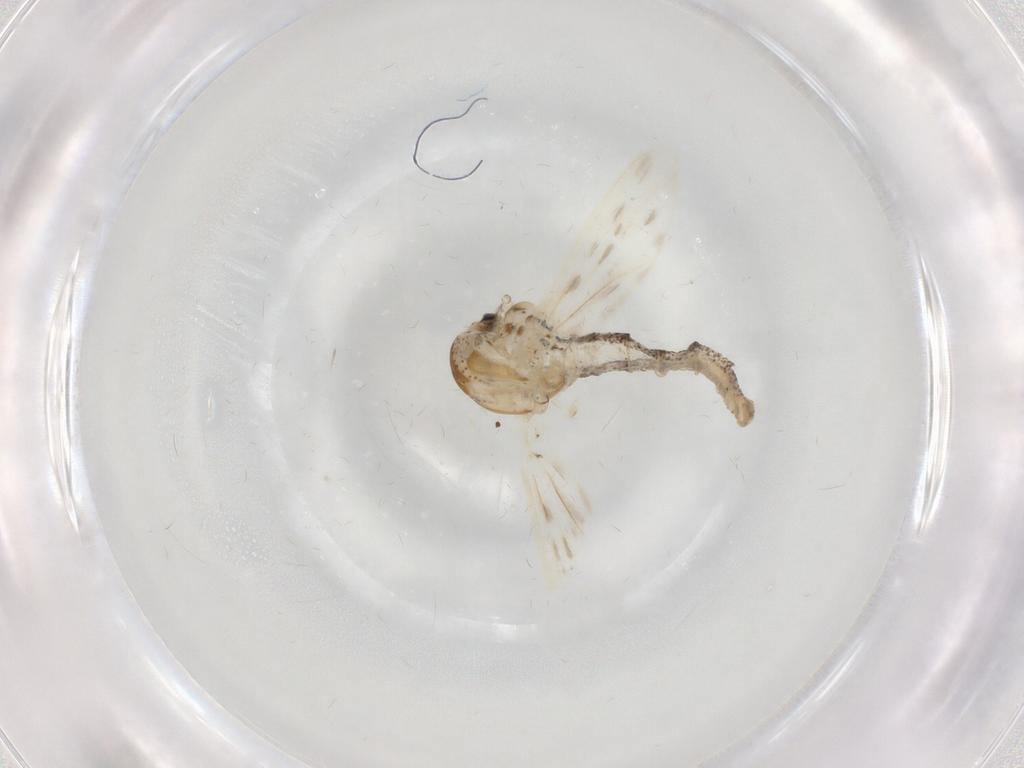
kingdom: Animalia
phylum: Arthropoda
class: Insecta
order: Diptera
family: Chaoboridae
